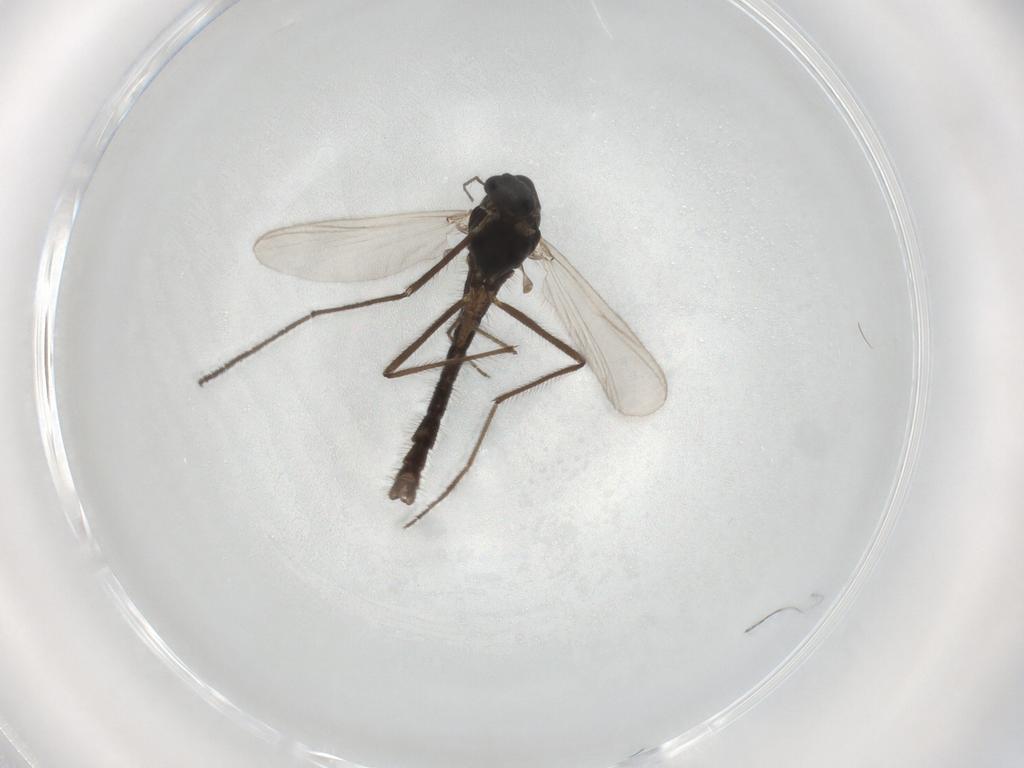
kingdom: Animalia
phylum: Arthropoda
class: Insecta
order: Diptera
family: Chironomidae
